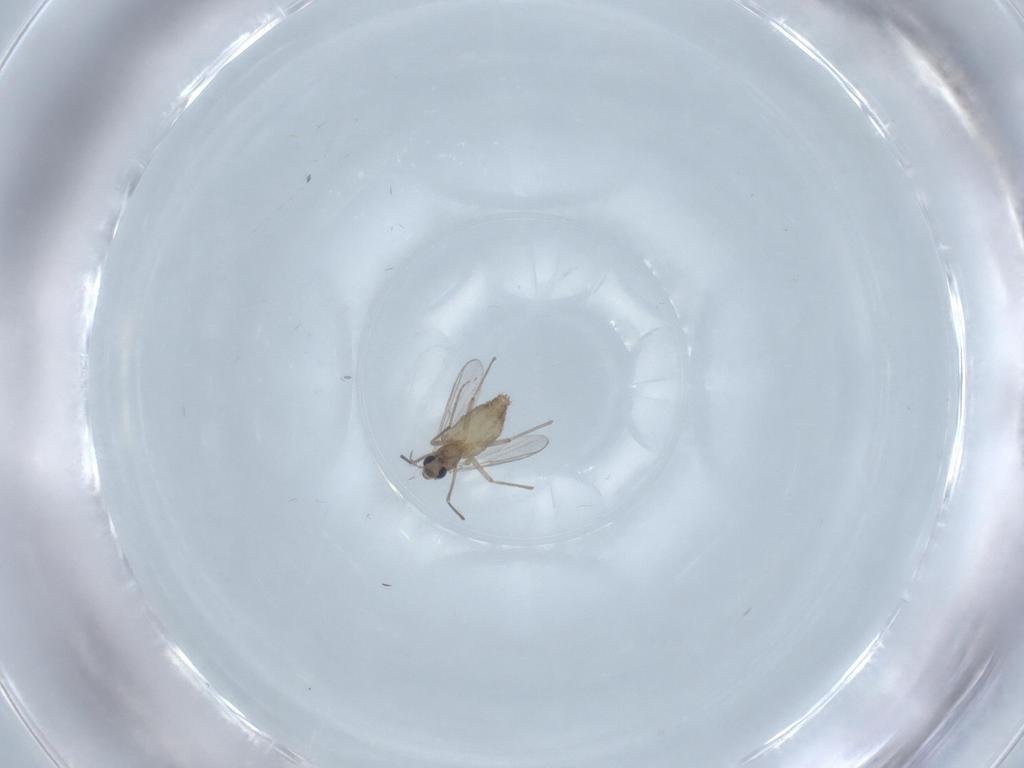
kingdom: Animalia
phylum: Arthropoda
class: Insecta
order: Diptera
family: Chironomidae
